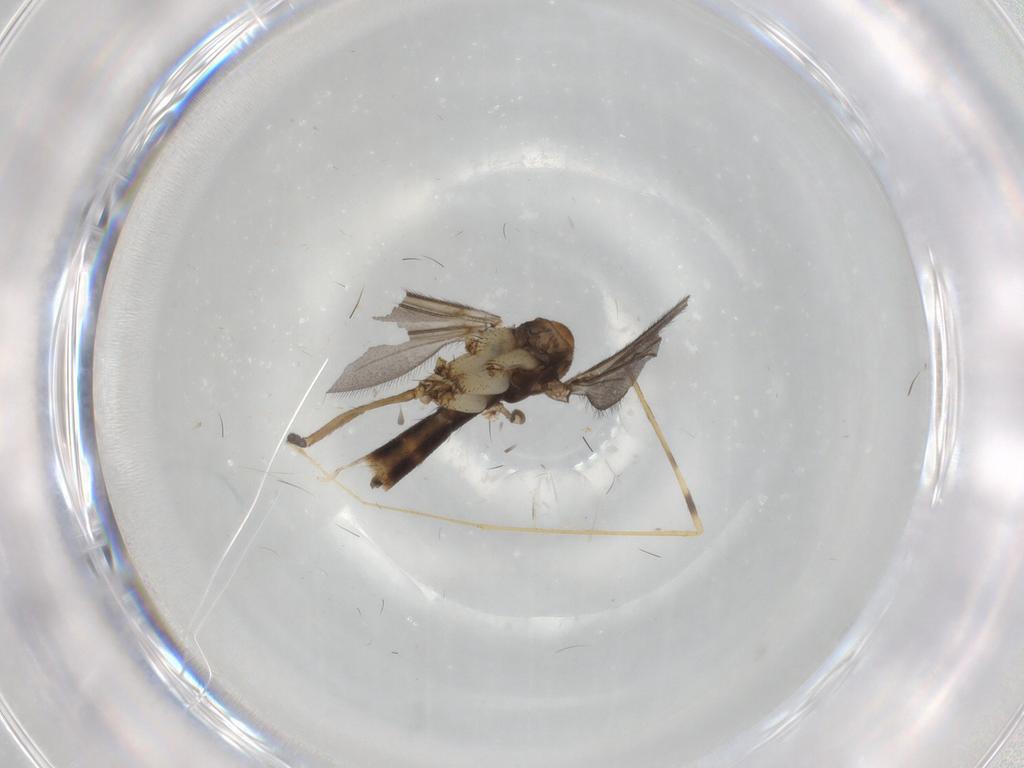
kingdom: Animalia
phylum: Arthropoda
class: Insecta
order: Diptera
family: Ditomyiidae
